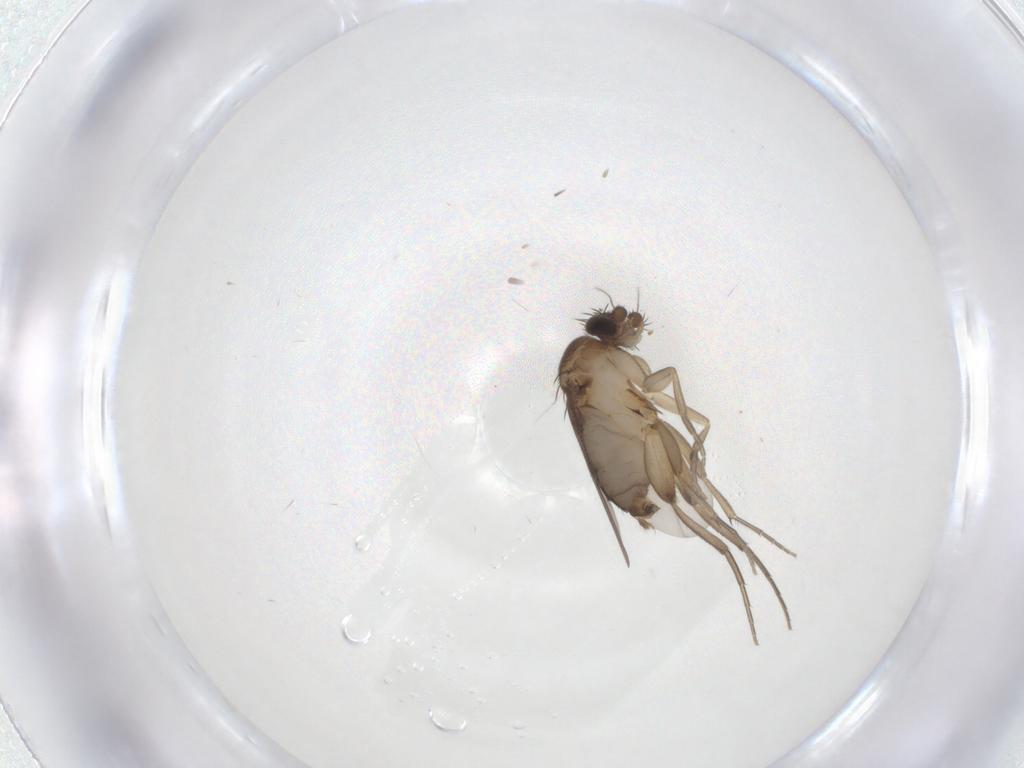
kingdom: Animalia
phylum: Arthropoda
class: Insecta
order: Diptera
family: Phoridae
